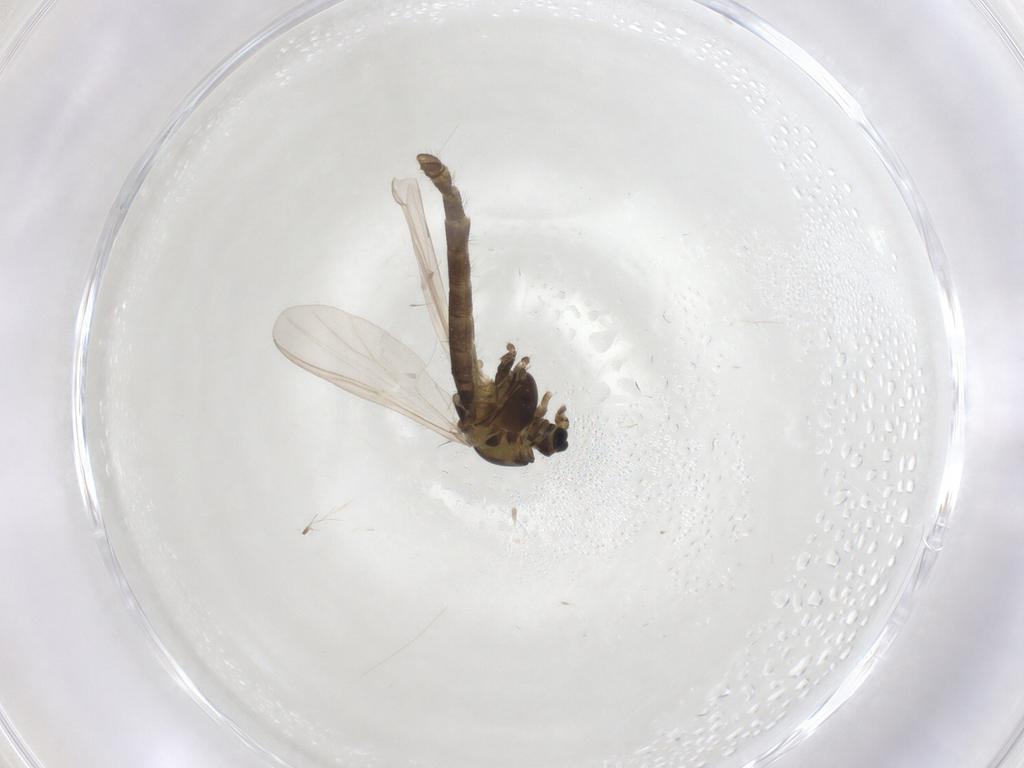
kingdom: Animalia
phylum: Arthropoda
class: Insecta
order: Diptera
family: Chironomidae
